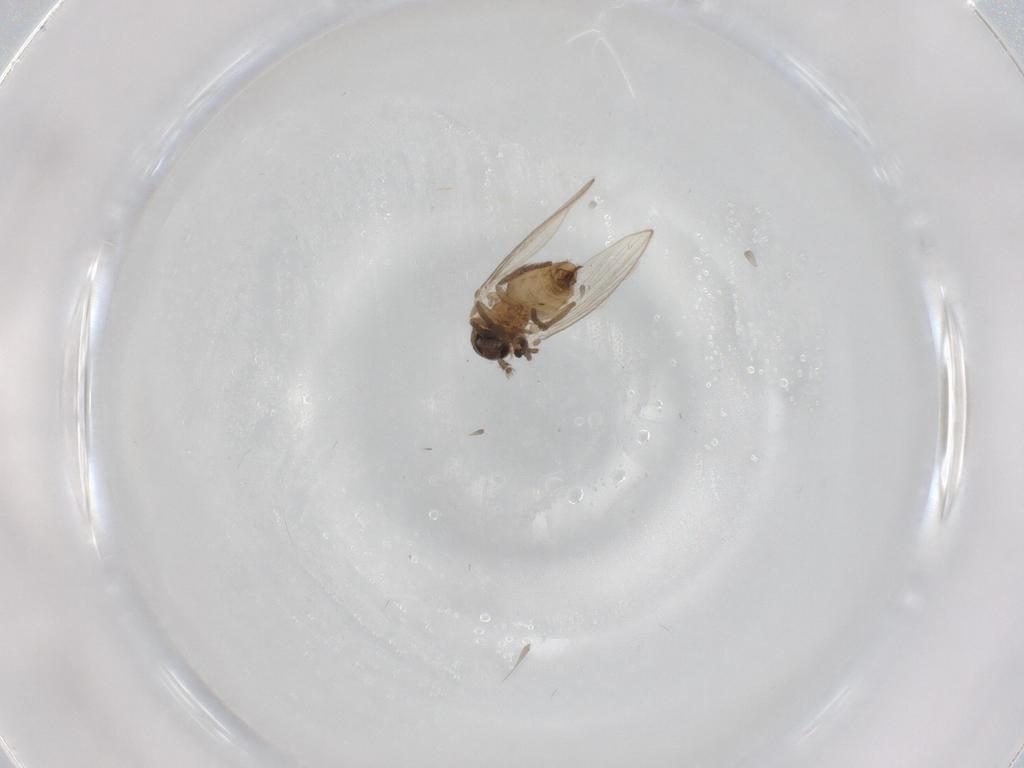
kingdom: Animalia
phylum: Arthropoda
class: Insecta
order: Diptera
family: Psychodidae
